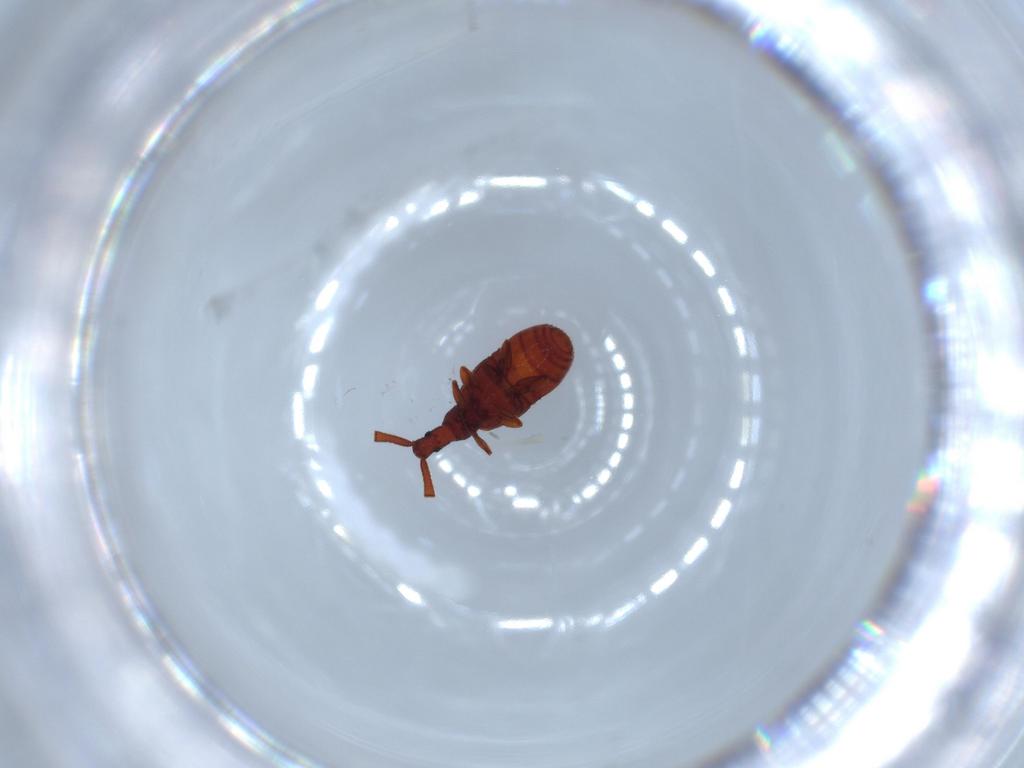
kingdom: Animalia
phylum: Arthropoda
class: Insecta
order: Coleoptera
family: Staphylinidae
